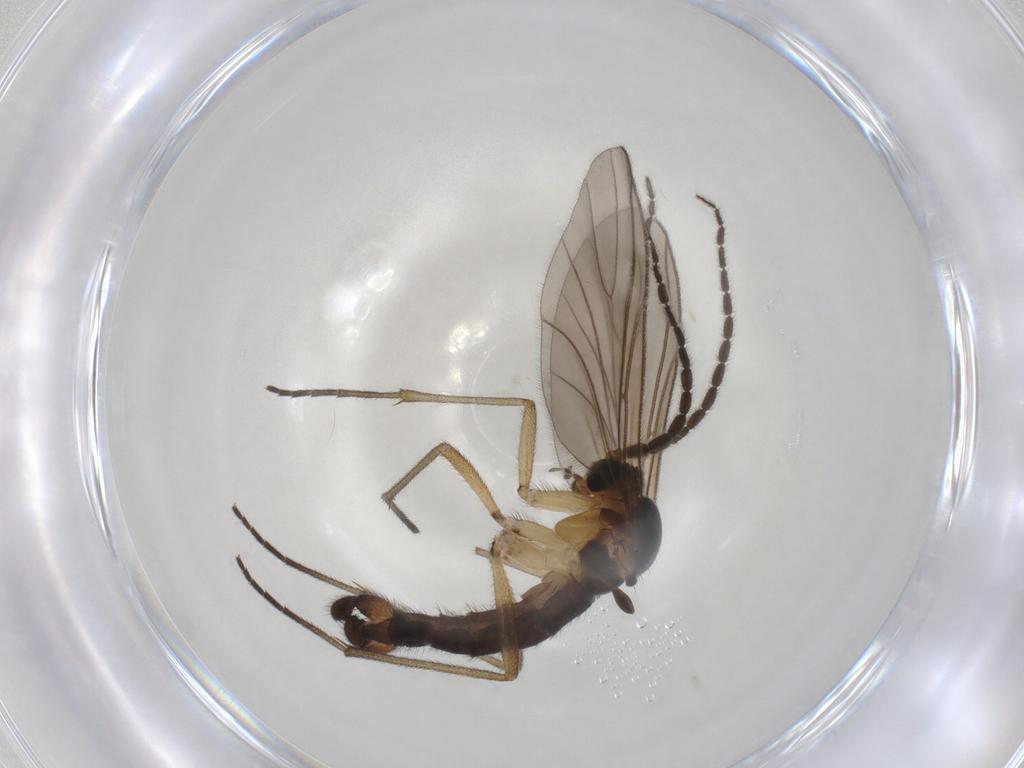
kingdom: Animalia
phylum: Arthropoda
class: Insecta
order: Diptera
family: Sciaridae
